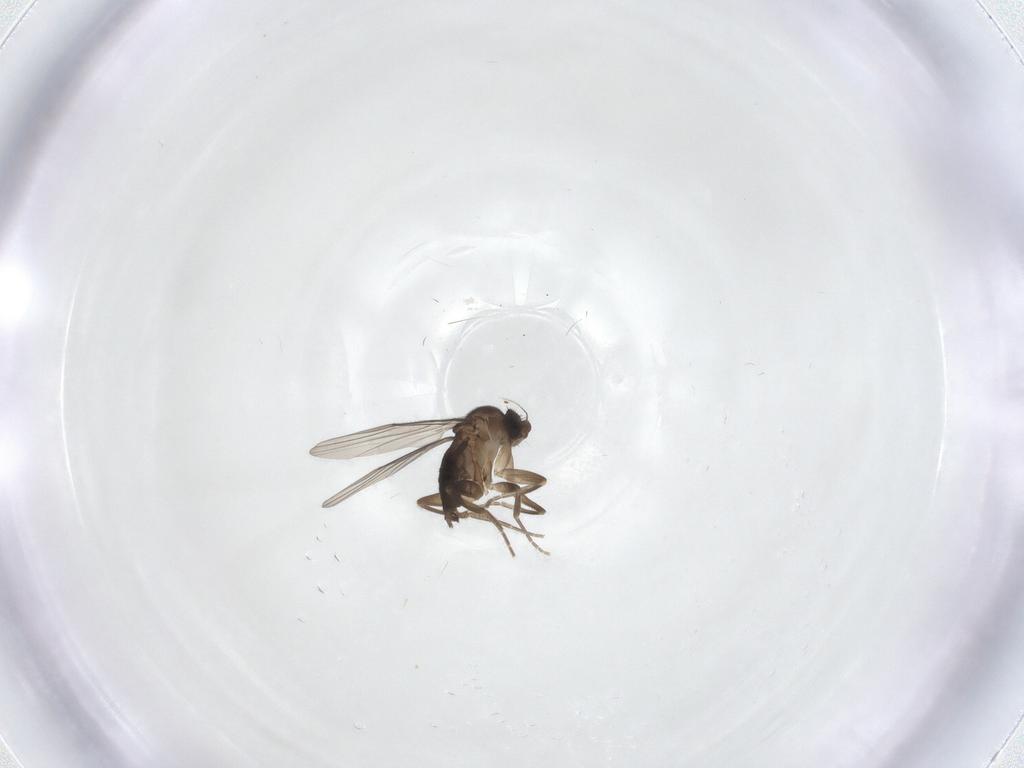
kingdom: Animalia
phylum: Arthropoda
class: Insecta
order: Diptera
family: Phoridae
